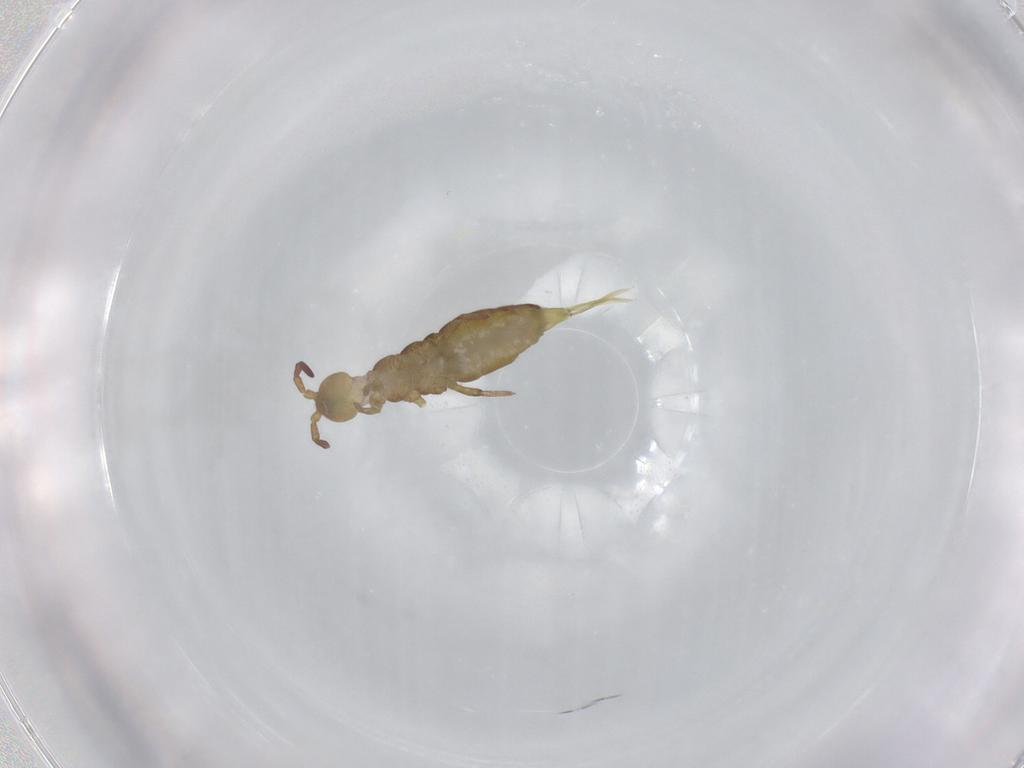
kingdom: Animalia
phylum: Arthropoda
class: Collembola
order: Entomobryomorpha
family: Isotomidae
